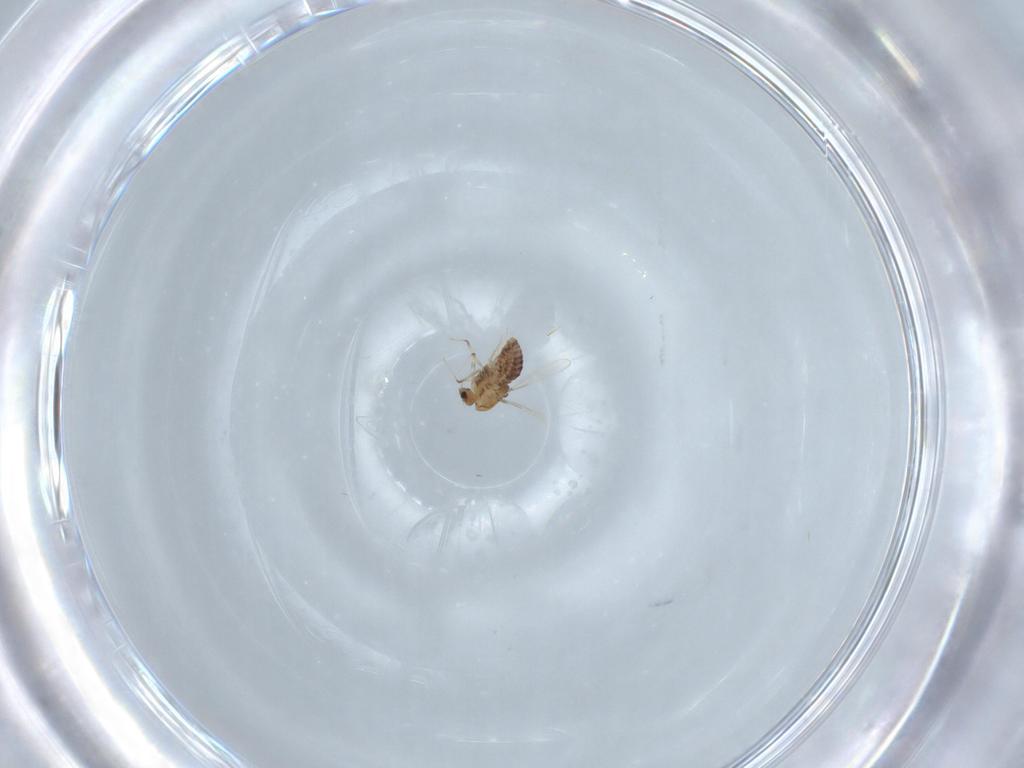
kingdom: Animalia
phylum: Arthropoda
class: Insecta
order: Diptera
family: Chironomidae
